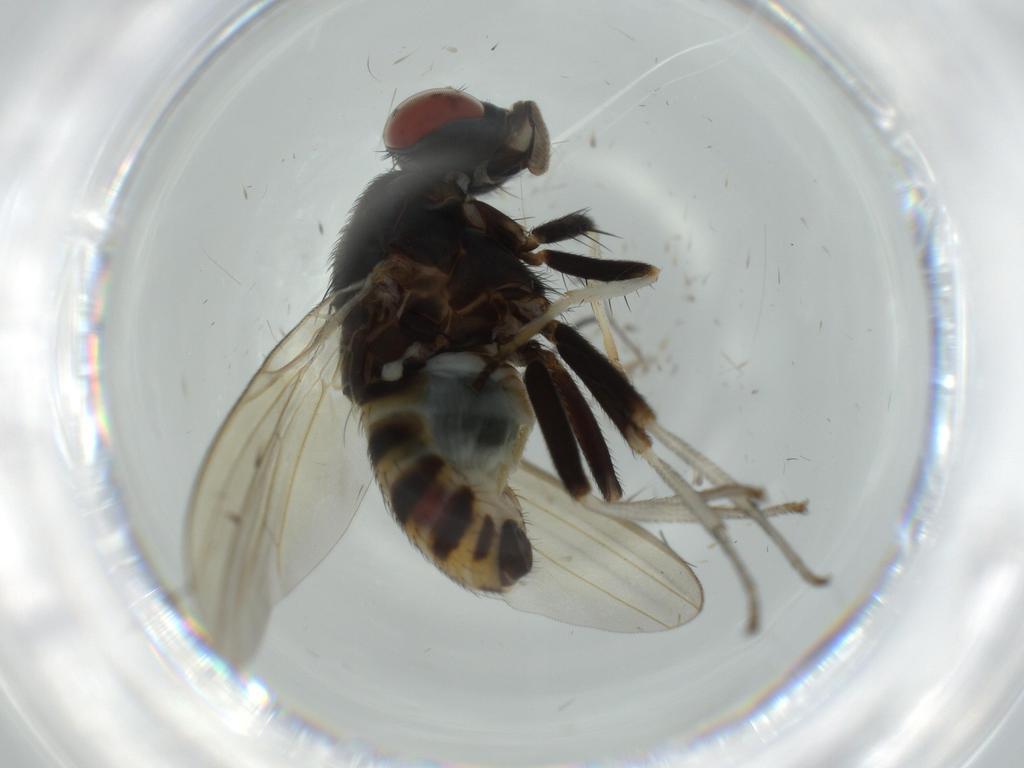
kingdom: Animalia
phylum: Arthropoda
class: Insecta
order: Diptera
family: Milichiidae
